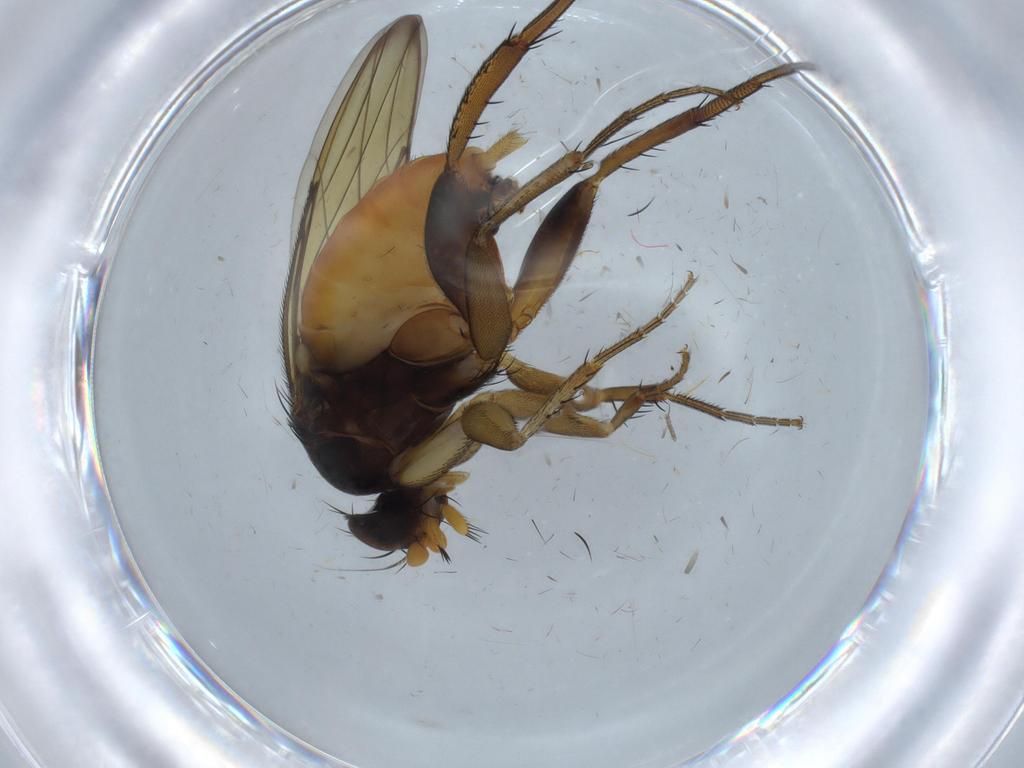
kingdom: Animalia
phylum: Arthropoda
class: Insecta
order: Diptera
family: Phoridae
